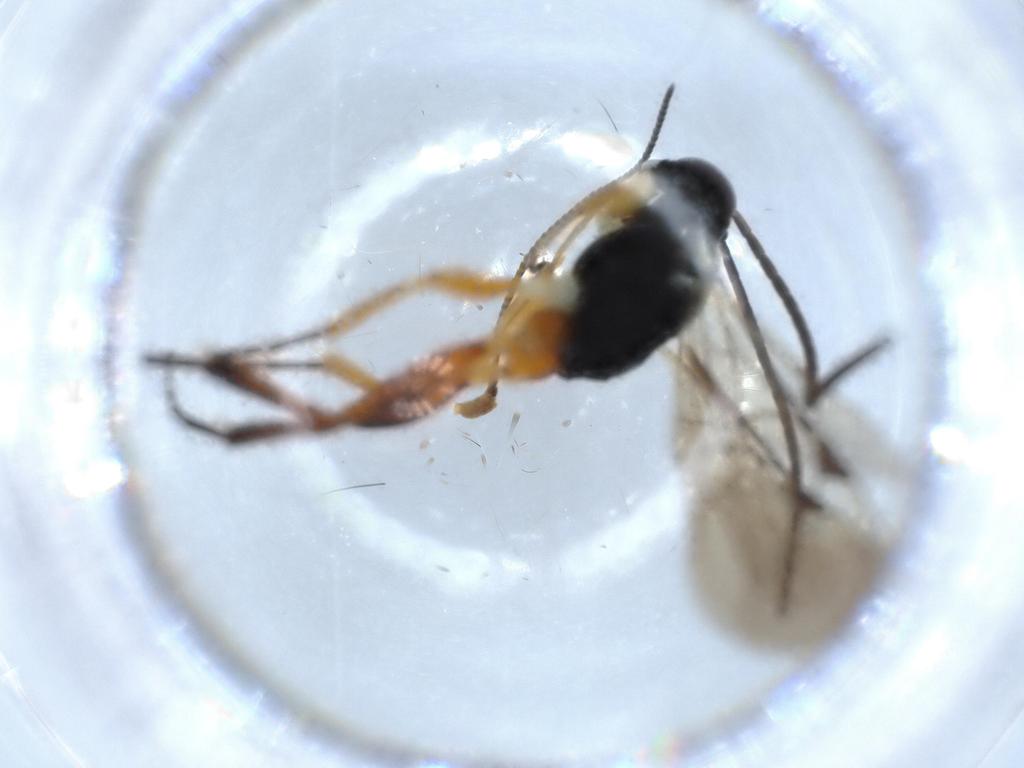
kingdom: Animalia
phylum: Arthropoda
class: Insecta
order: Hymenoptera
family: Ichneumonidae
